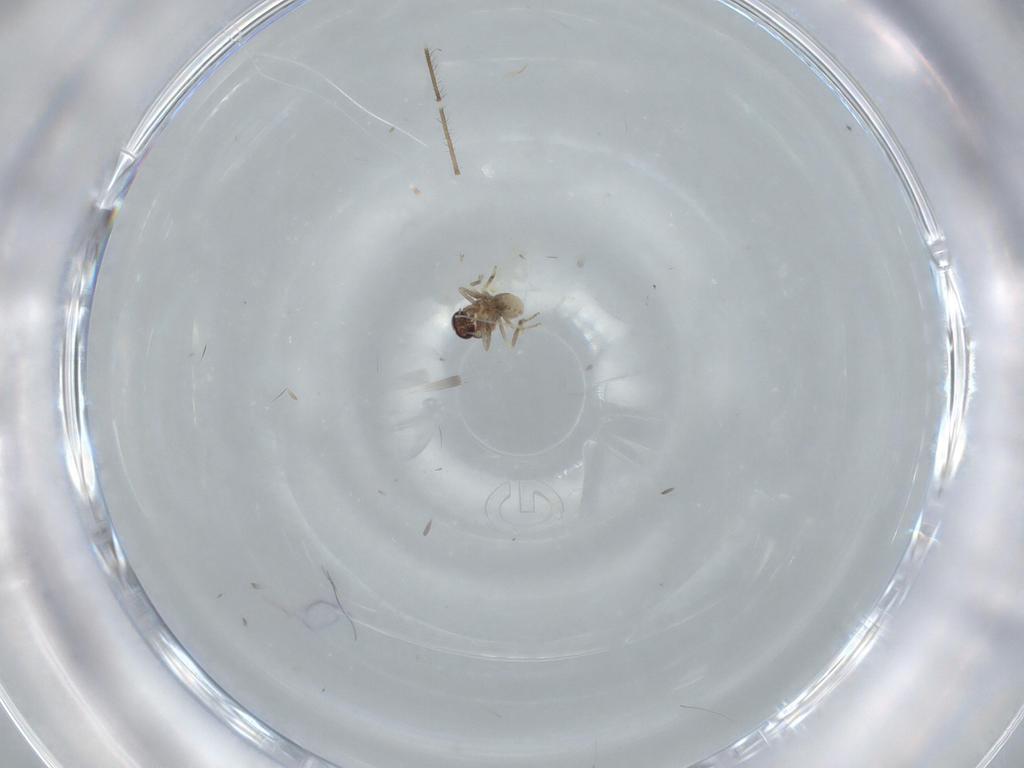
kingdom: Animalia
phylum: Arthropoda
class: Insecta
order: Diptera
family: Ceratopogonidae
